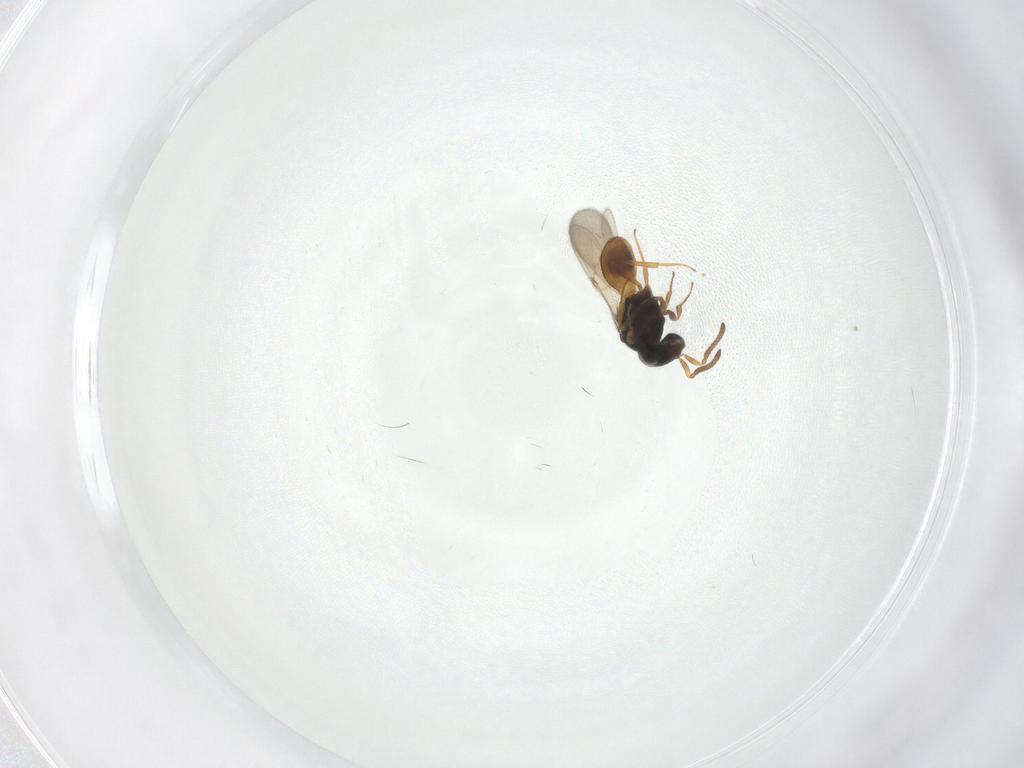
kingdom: Animalia
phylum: Arthropoda
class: Insecta
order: Hymenoptera
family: Scelionidae
